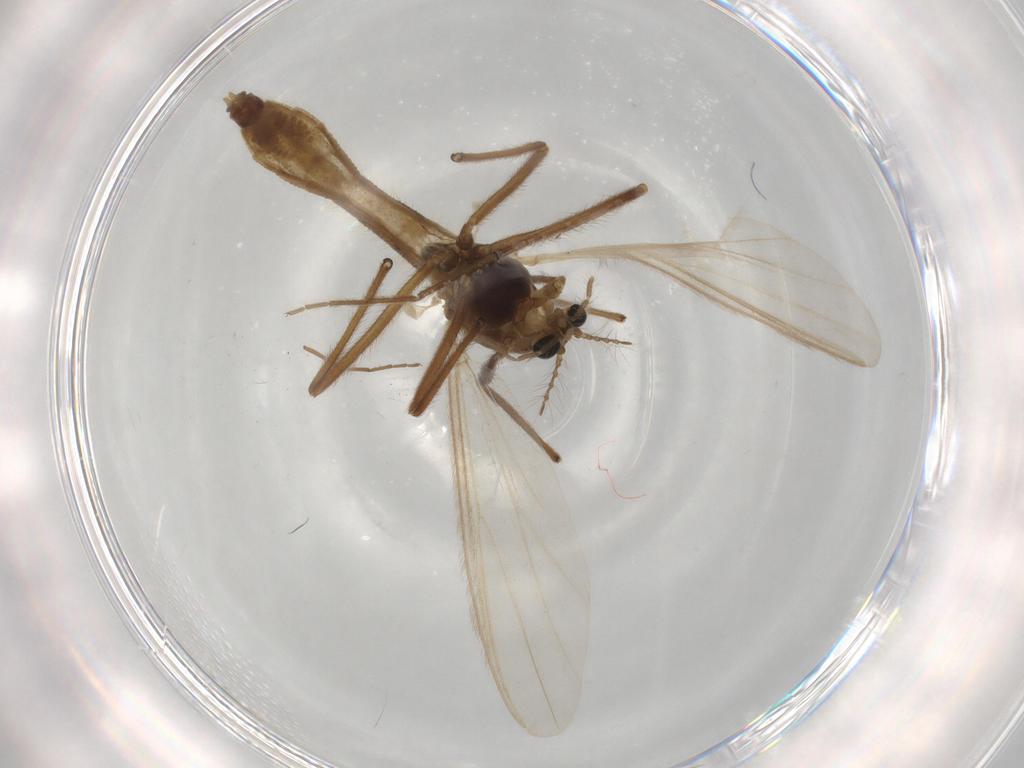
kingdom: Animalia
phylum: Arthropoda
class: Insecta
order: Diptera
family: Chironomidae
